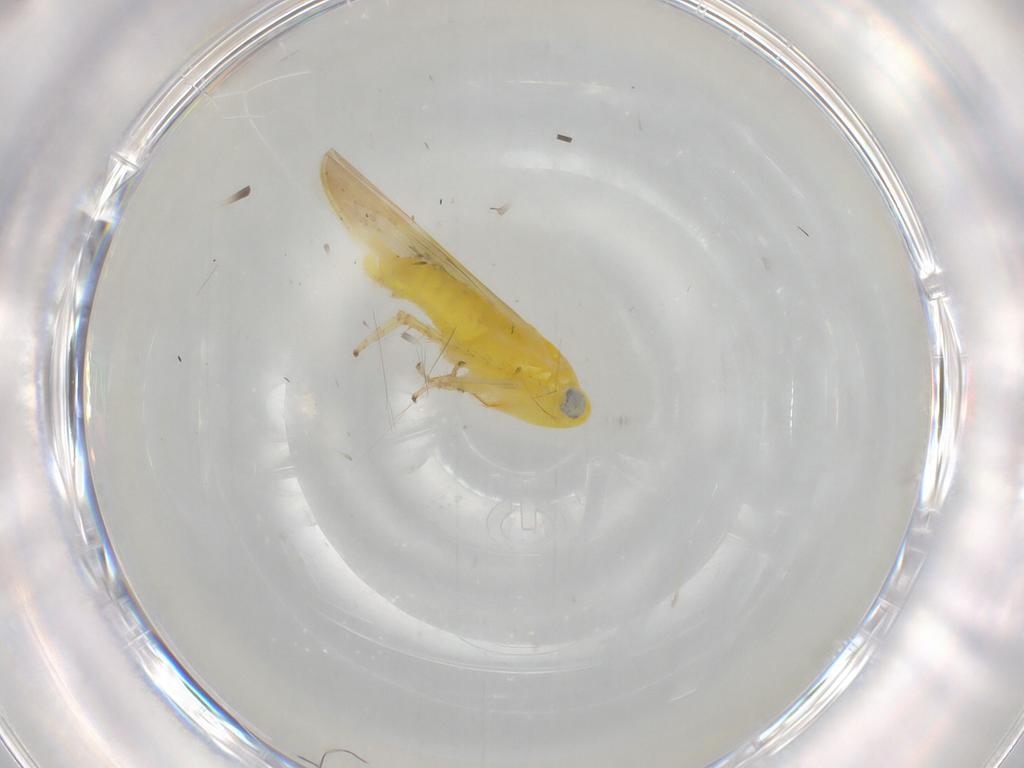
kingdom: Animalia
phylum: Arthropoda
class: Insecta
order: Hemiptera
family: Cicadellidae
